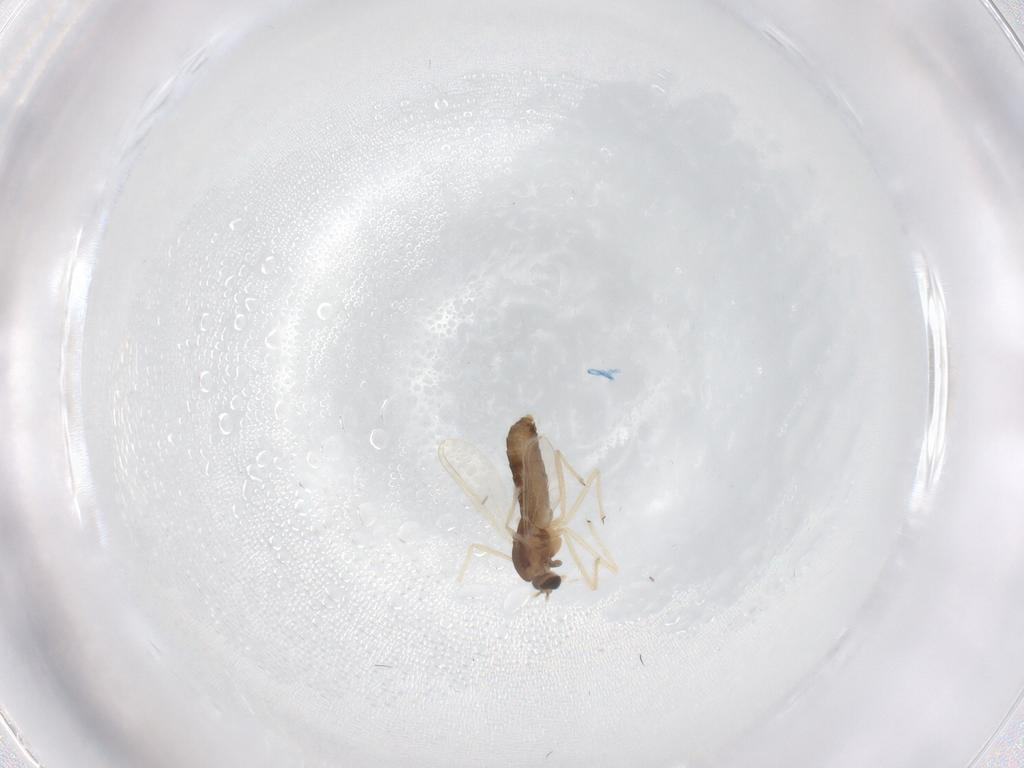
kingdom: Animalia
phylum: Arthropoda
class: Insecta
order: Diptera
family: Chironomidae
